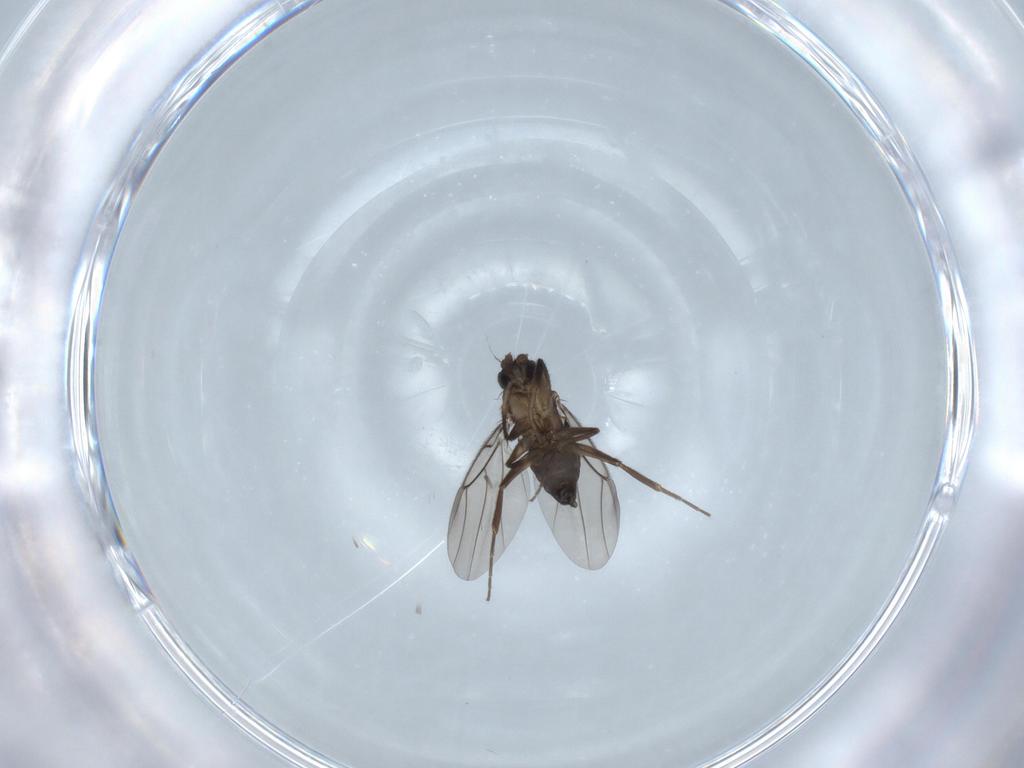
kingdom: Animalia
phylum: Arthropoda
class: Insecta
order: Diptera
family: Phoridae
